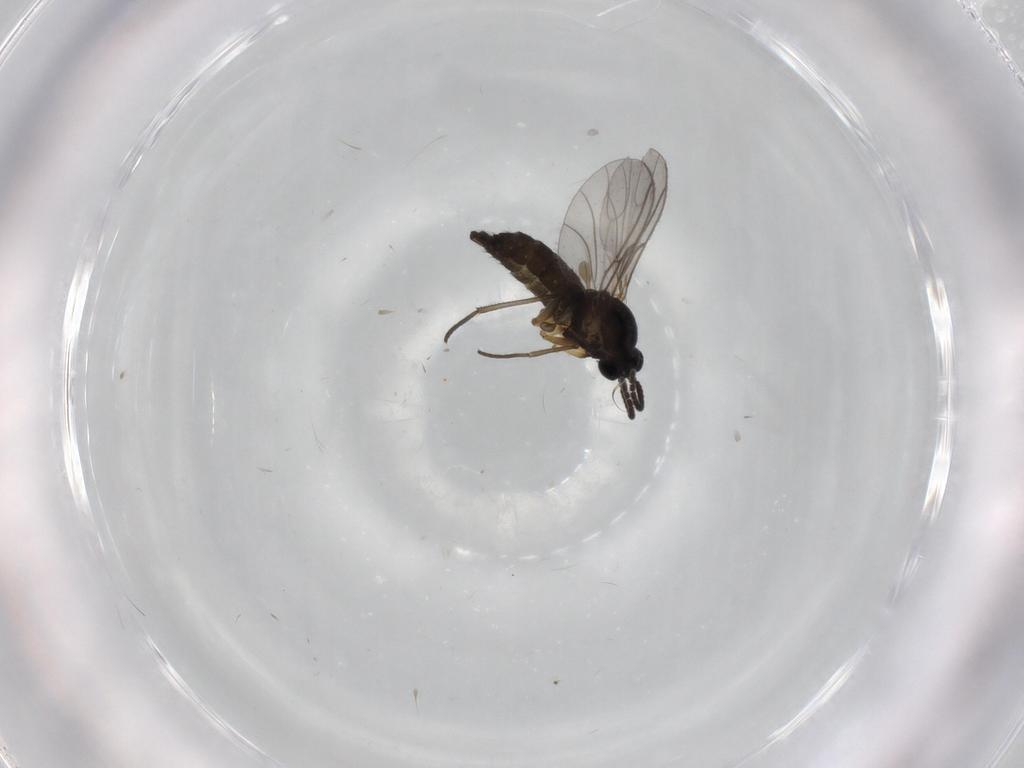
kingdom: Animalia
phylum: Arthropoda
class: Insecta
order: Diptera
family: Sciaridae
